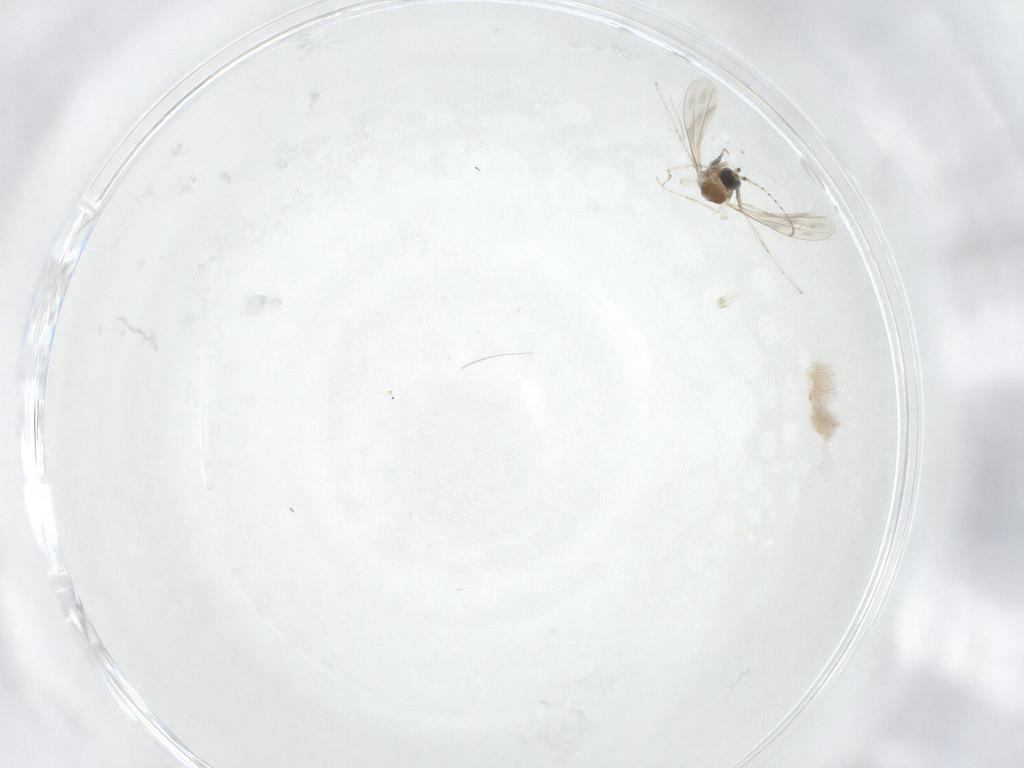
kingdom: Animalia
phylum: Arthropoda
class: Insecta
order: Diptera
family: Cecidomyiidae
